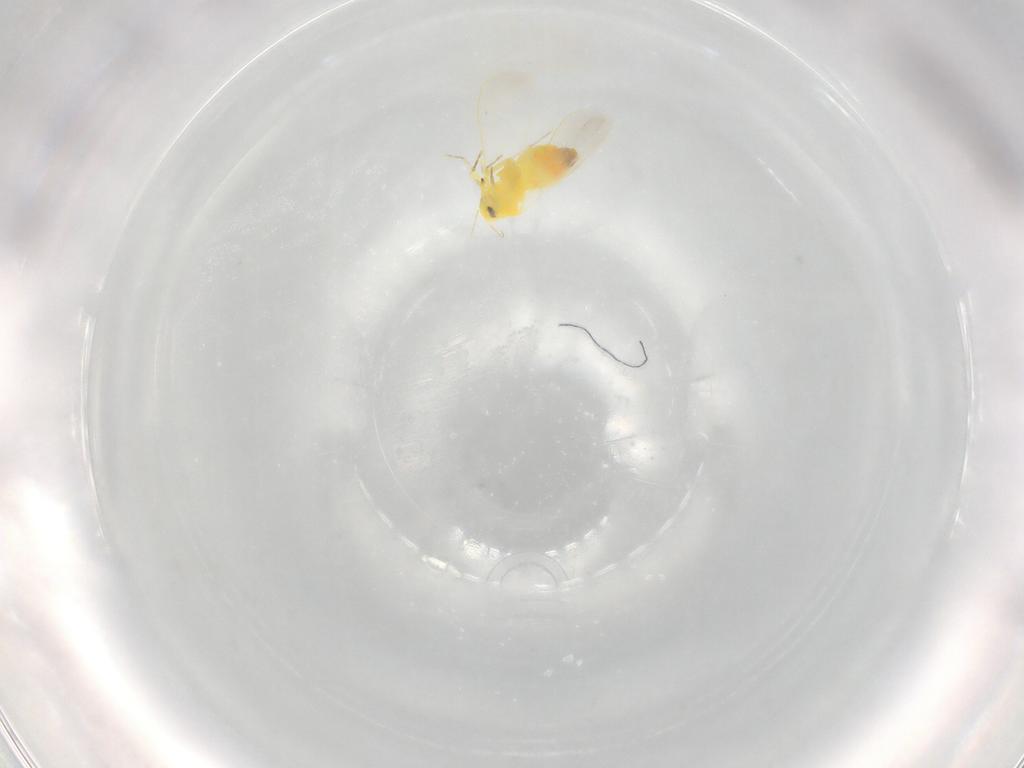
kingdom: Animalia
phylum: Arthropoda
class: Insecta
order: Hemiptera
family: Aleyrodidae
